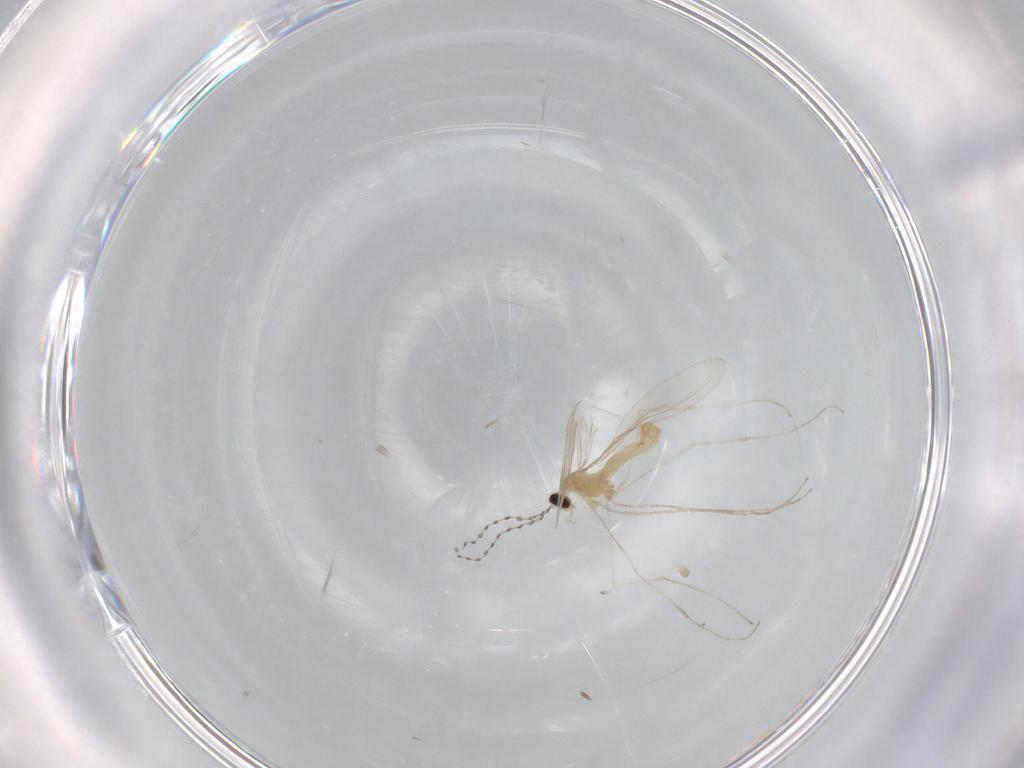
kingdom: Animalia
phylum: Arthropoda
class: Insecta
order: Diptera
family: Cecidomyiidae
